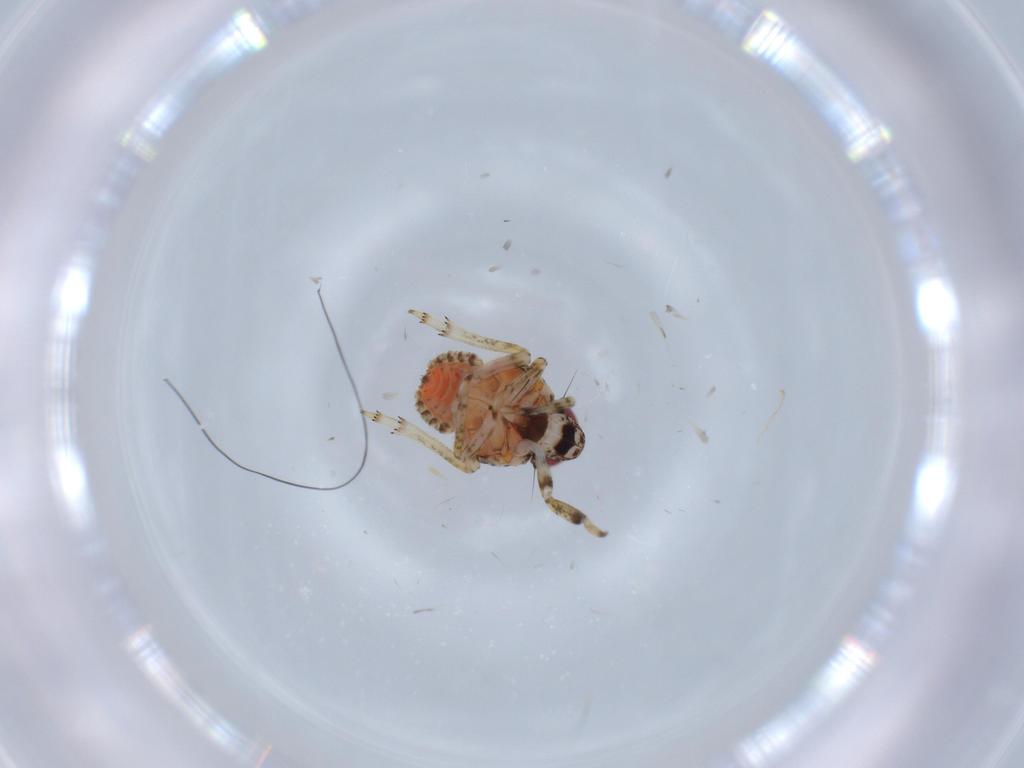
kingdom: Animalia
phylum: Arthropoda
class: Insecta
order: Hemiptera
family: Issidae
